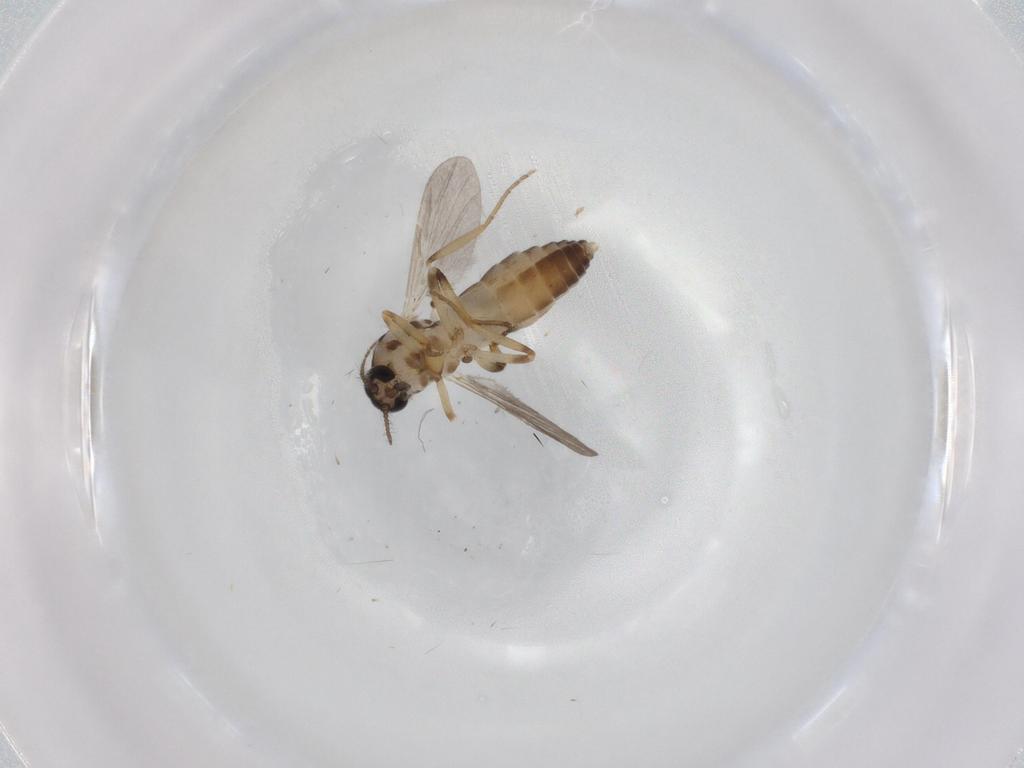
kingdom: Animalia
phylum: Arthropoda
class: Insecta
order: Diptera
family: Ceratopogonidae
